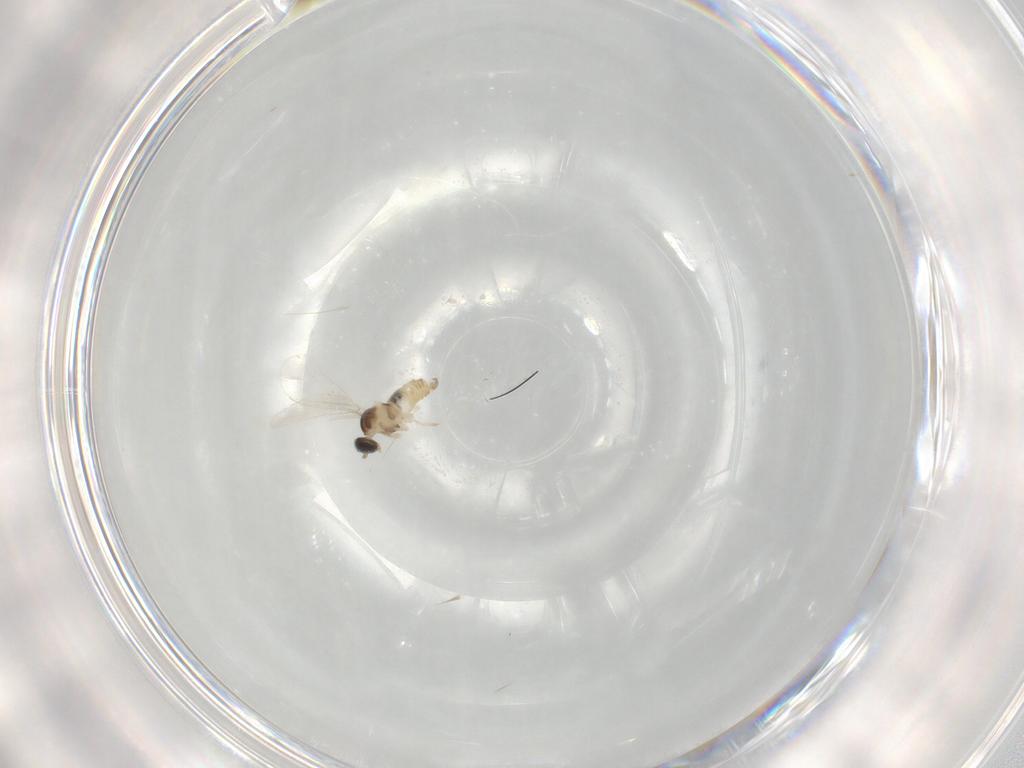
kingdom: Animalia
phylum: Arthropoda
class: Insecta
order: Diptera
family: Cecidomyiidae
